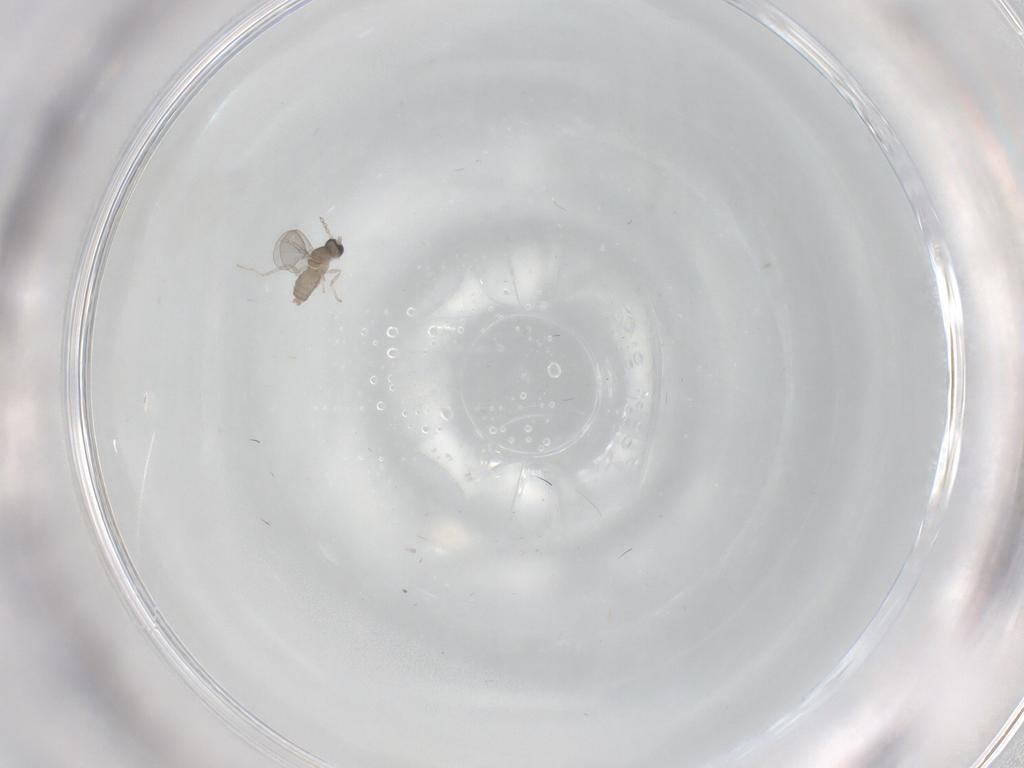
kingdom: Animalia
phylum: Arthropoda
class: Insecta
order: Diptera
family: Cecidomyiidae
